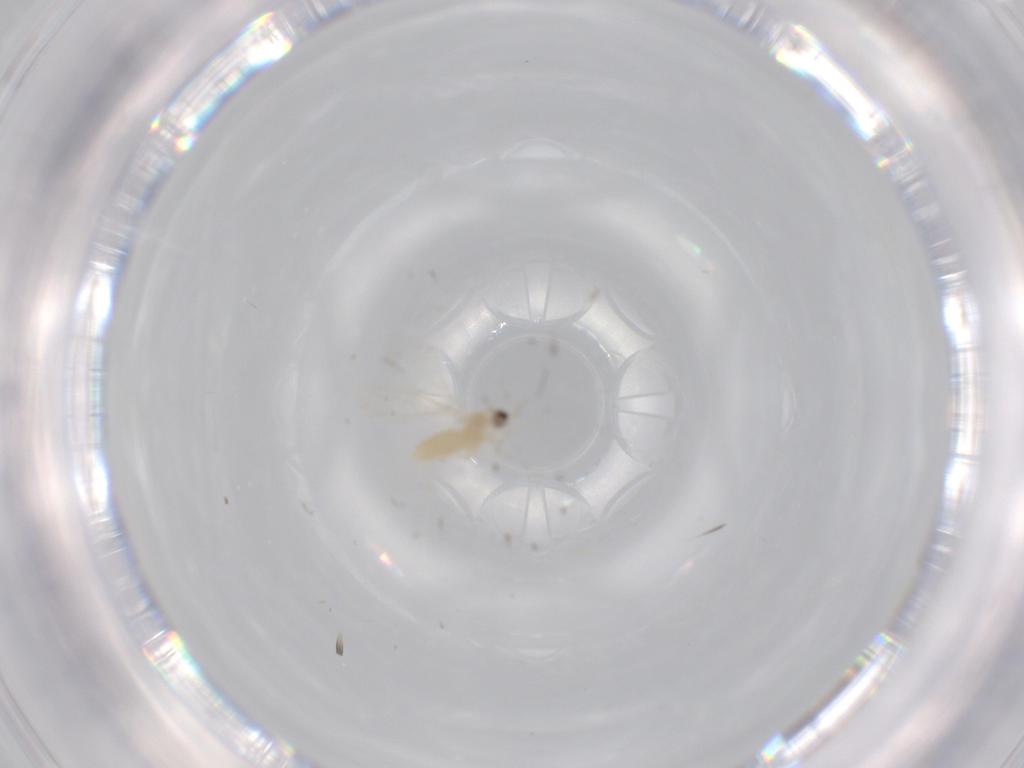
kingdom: Animalia
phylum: Arthropoda
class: Insecta
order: Diptera
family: Cecidomyiidae
